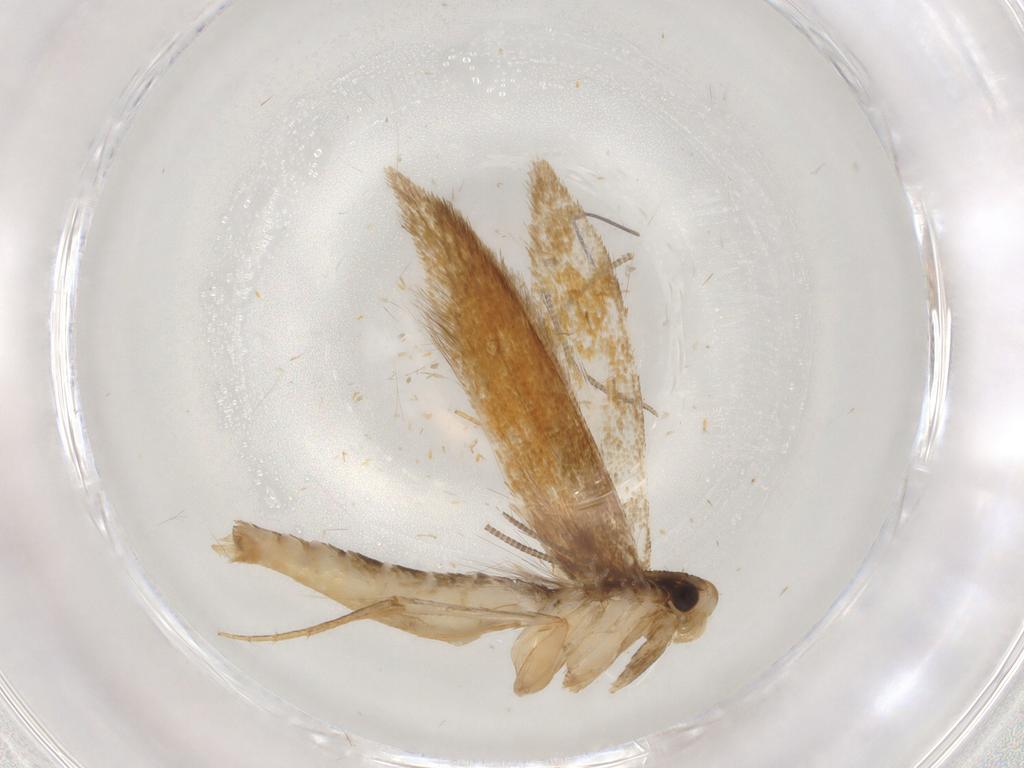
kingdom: Animalia
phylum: Arthropoda
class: Insecta
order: Lepidoptera
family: Tineidae
